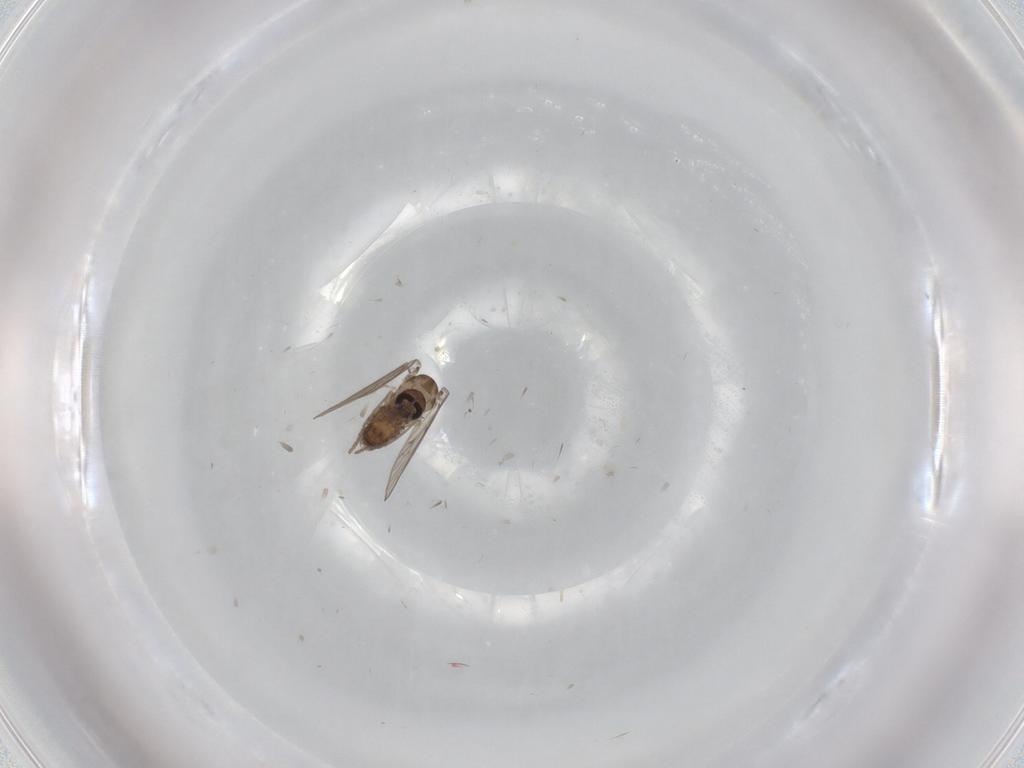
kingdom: Animalia
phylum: Arthropoda
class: Insecta
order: Diptera
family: Psychodidae
